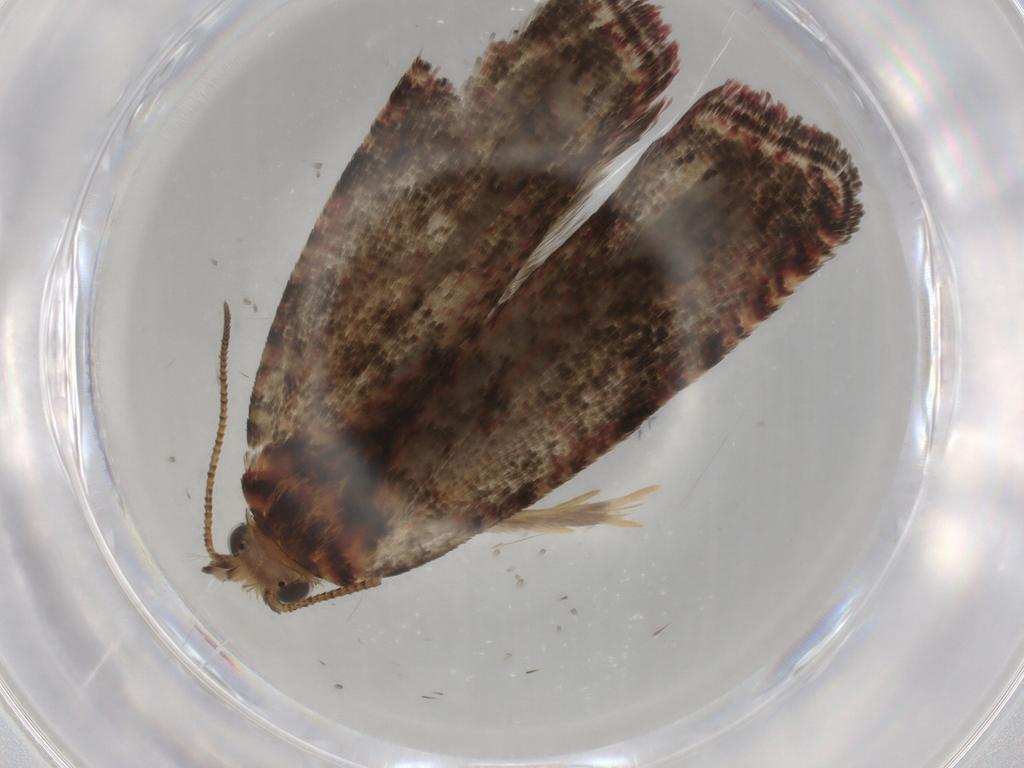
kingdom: Animalia
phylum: Arthropoda
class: Insecta
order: Lepidoptera
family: Tortricidae
